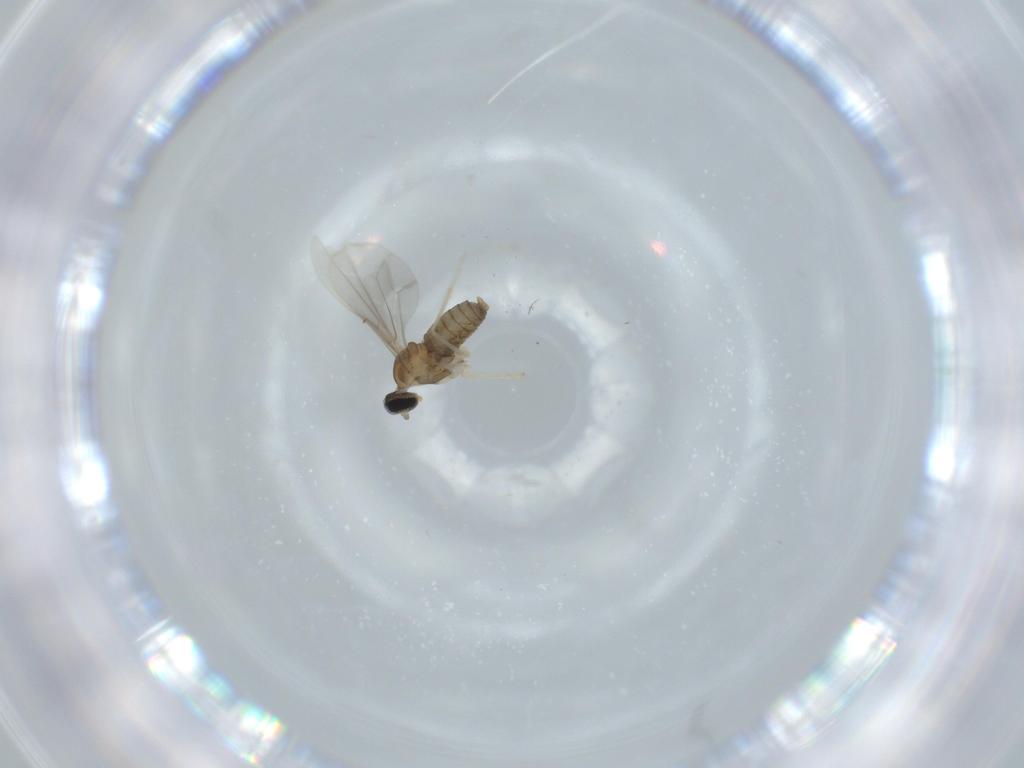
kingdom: Animalia
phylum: Arthropoda
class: Insecta
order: Diptera
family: Cecidomyiidae
